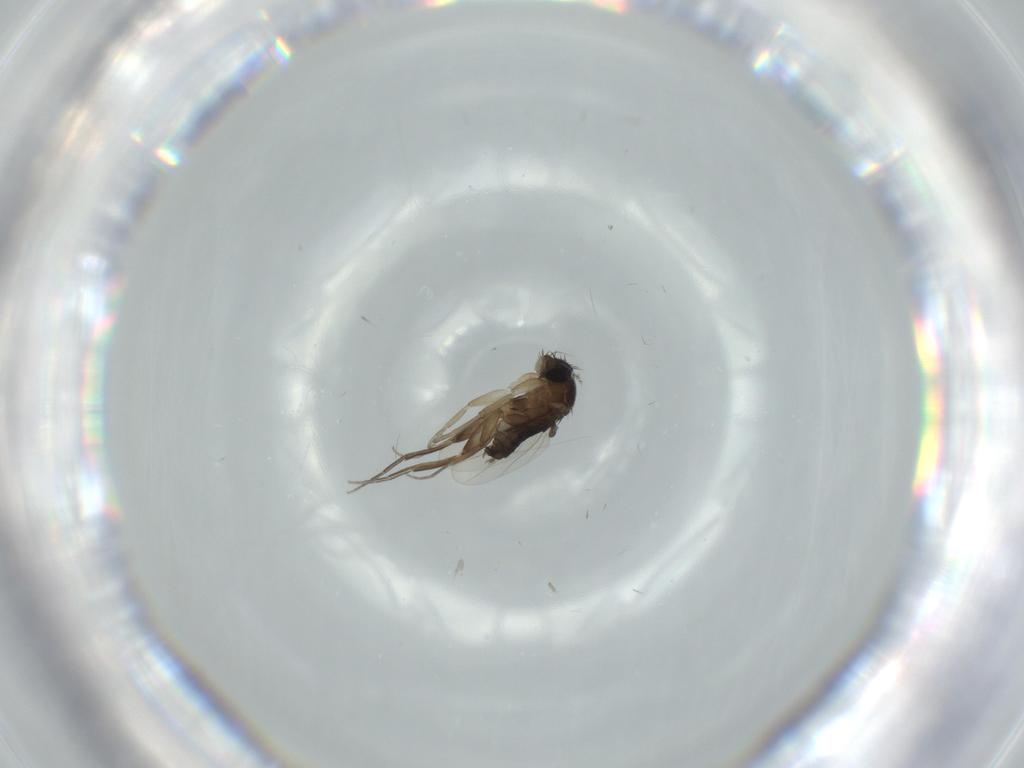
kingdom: Animalia
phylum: Arthropoda
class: Insecta
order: Diptera
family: Phoridae
